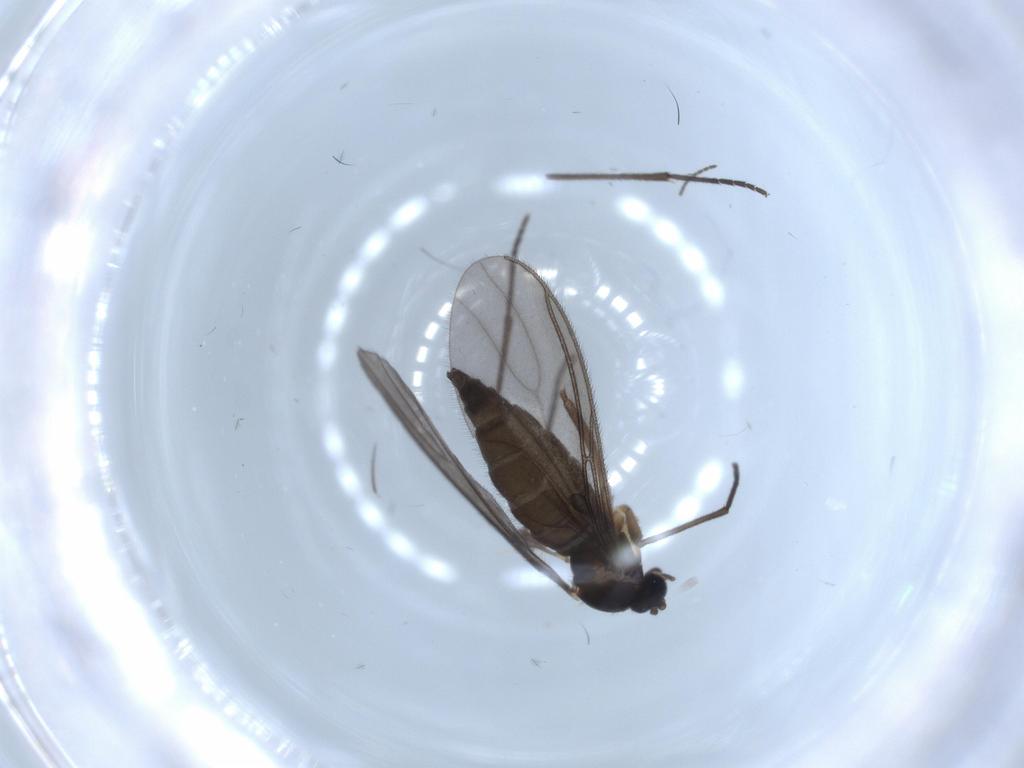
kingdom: Animalia
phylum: Arthropoda
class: Insecta
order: Diptera
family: Sciaridae
